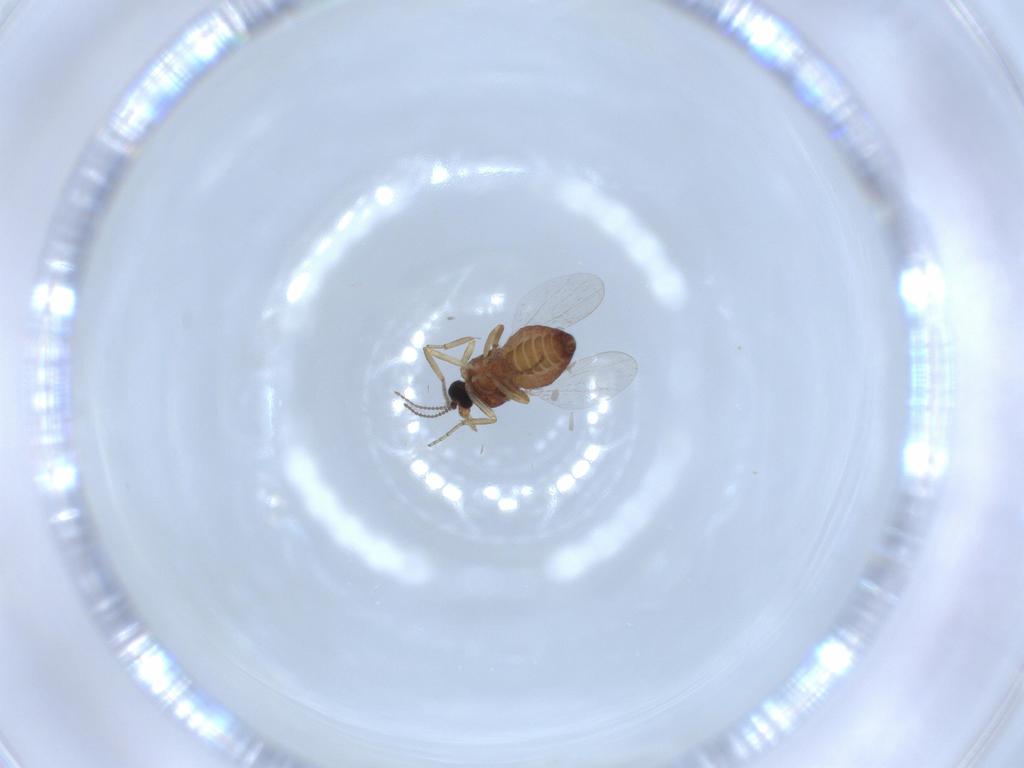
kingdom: Animalia
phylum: Arthropoda
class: Insecta
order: Diptera
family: Ceratopogonidae
